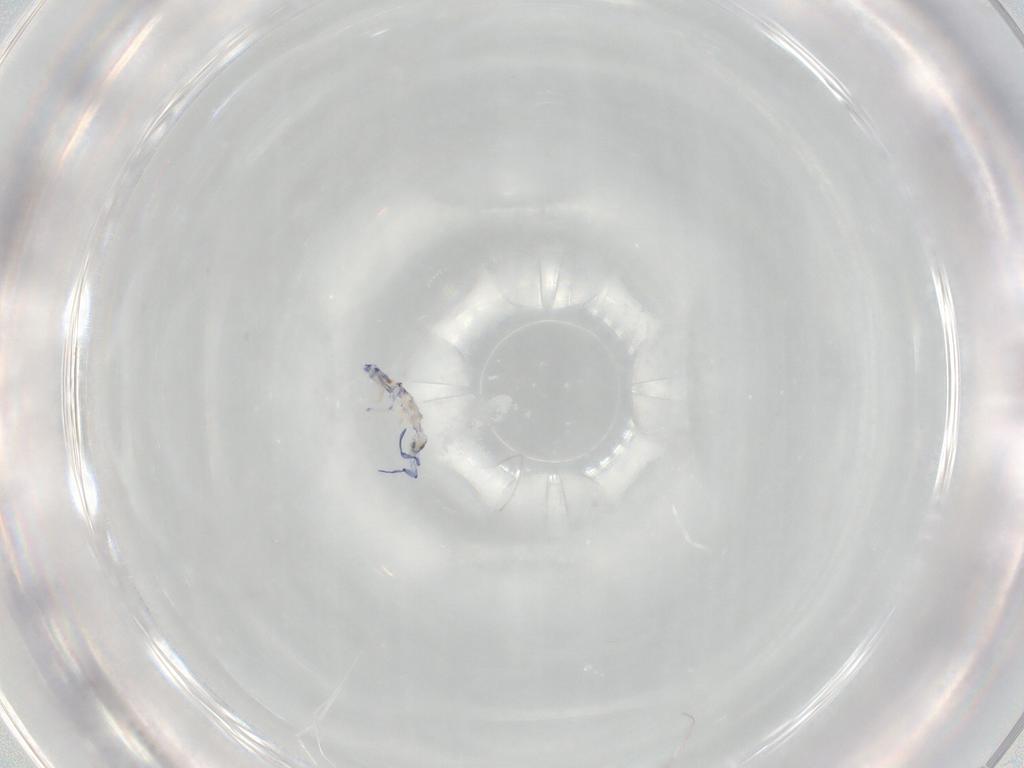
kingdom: Animalia
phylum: Arthropoda
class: Collembola
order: Entomobryomorpha
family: Entomobryidae
